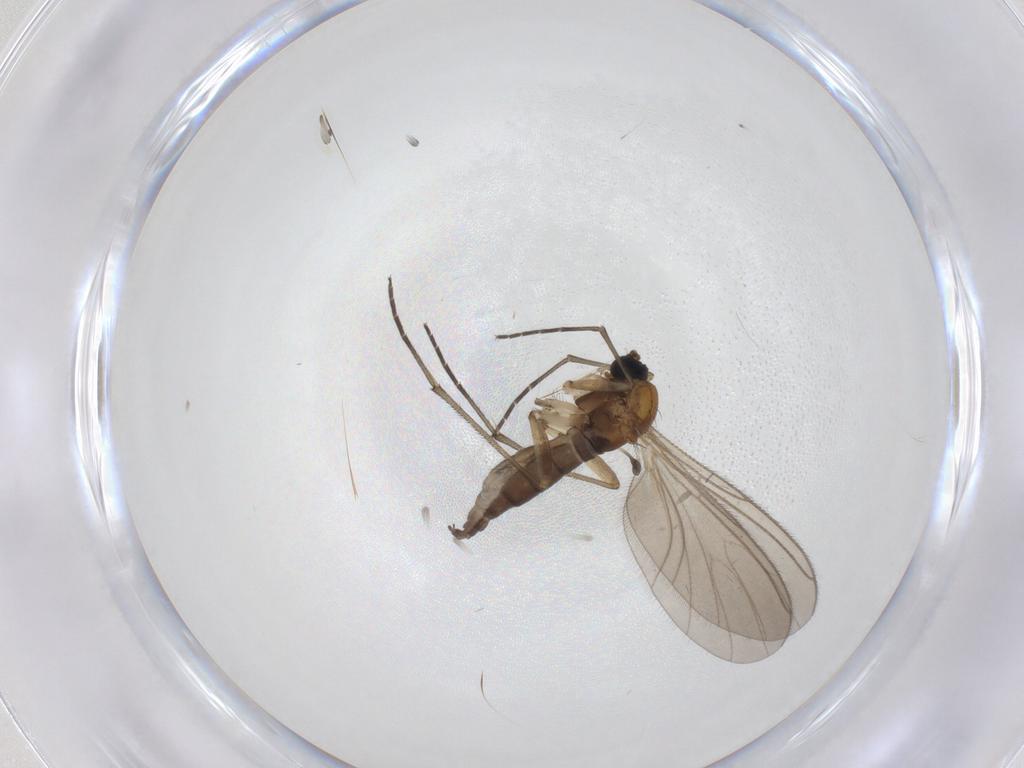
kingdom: Animalia
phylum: Arthropoda
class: Insecta
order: Diptera
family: Sciaridae
